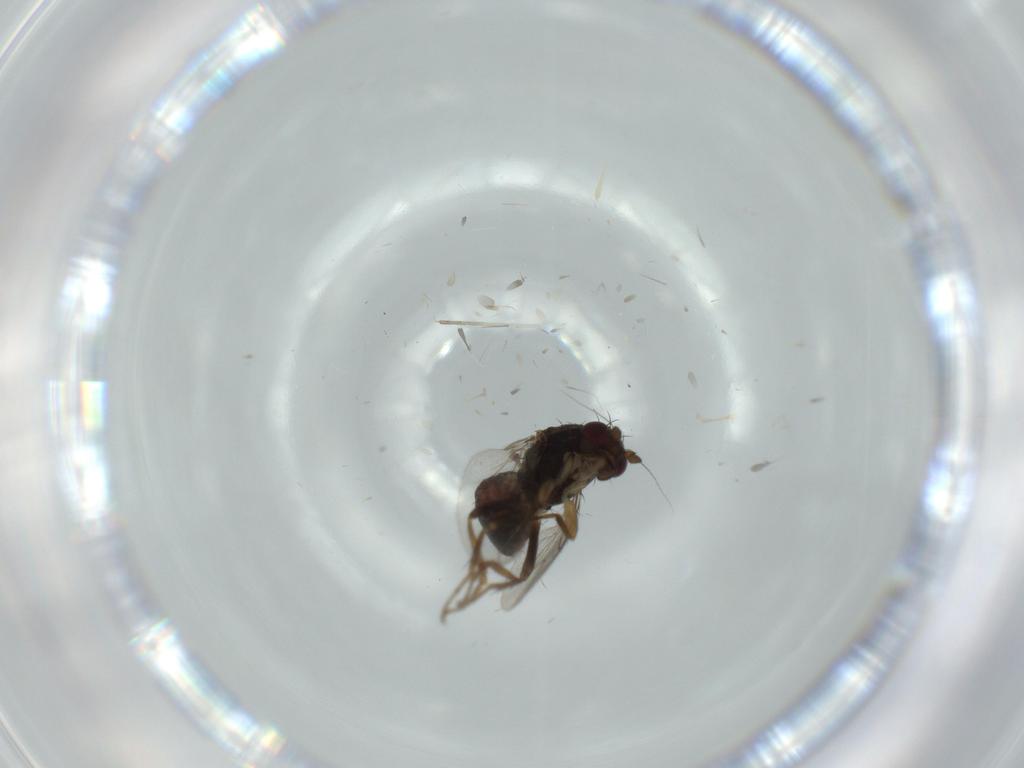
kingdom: Animalia
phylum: Arthropoda
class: Insecta
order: Diptera
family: Sphaeroceridae
